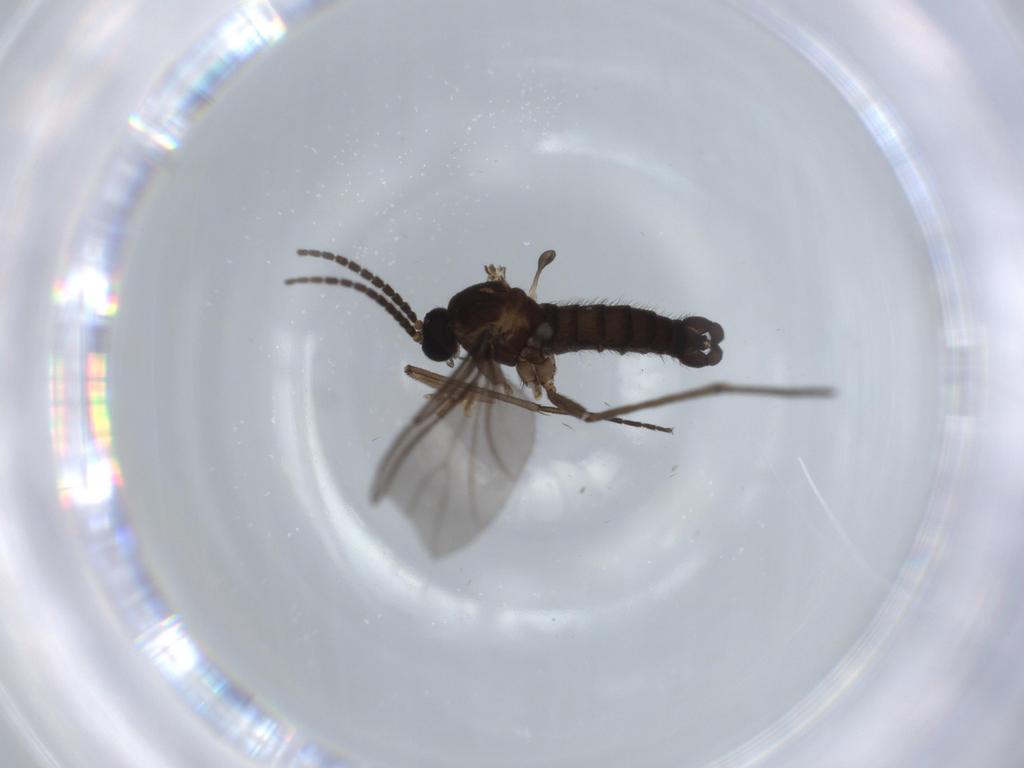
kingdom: Animalia
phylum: Arthropoda
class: Insecta
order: Diptera
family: Sciaridae
